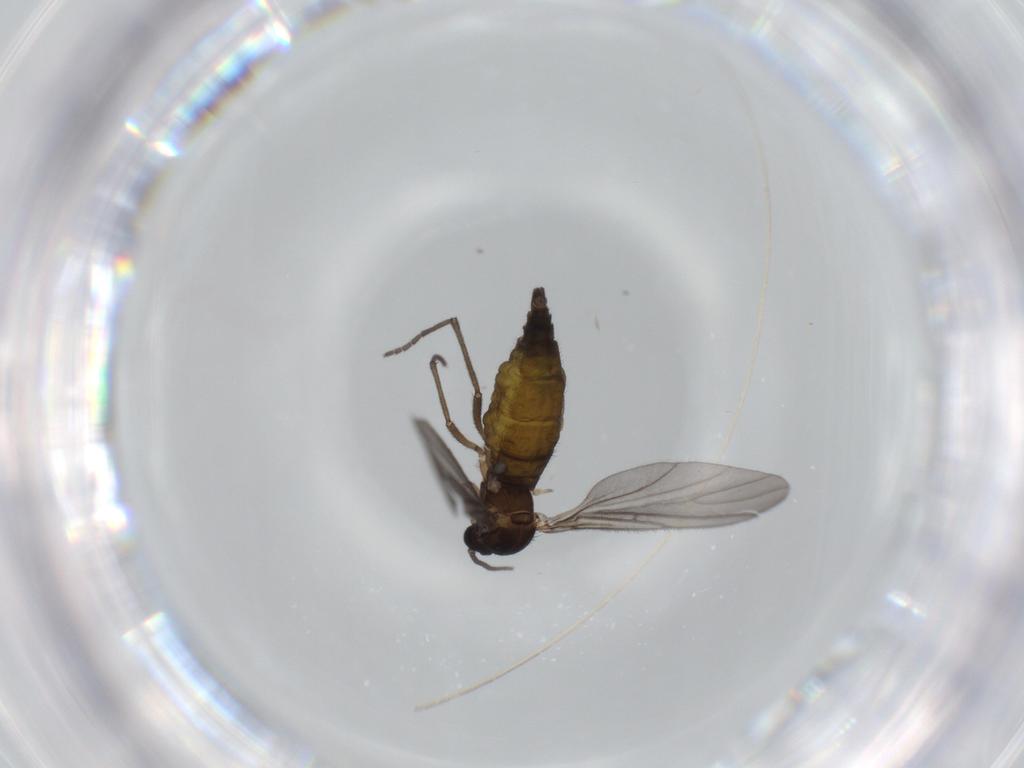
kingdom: Animalia
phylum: Arthropoda
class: Insecta
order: Diptera
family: Sciaridae
